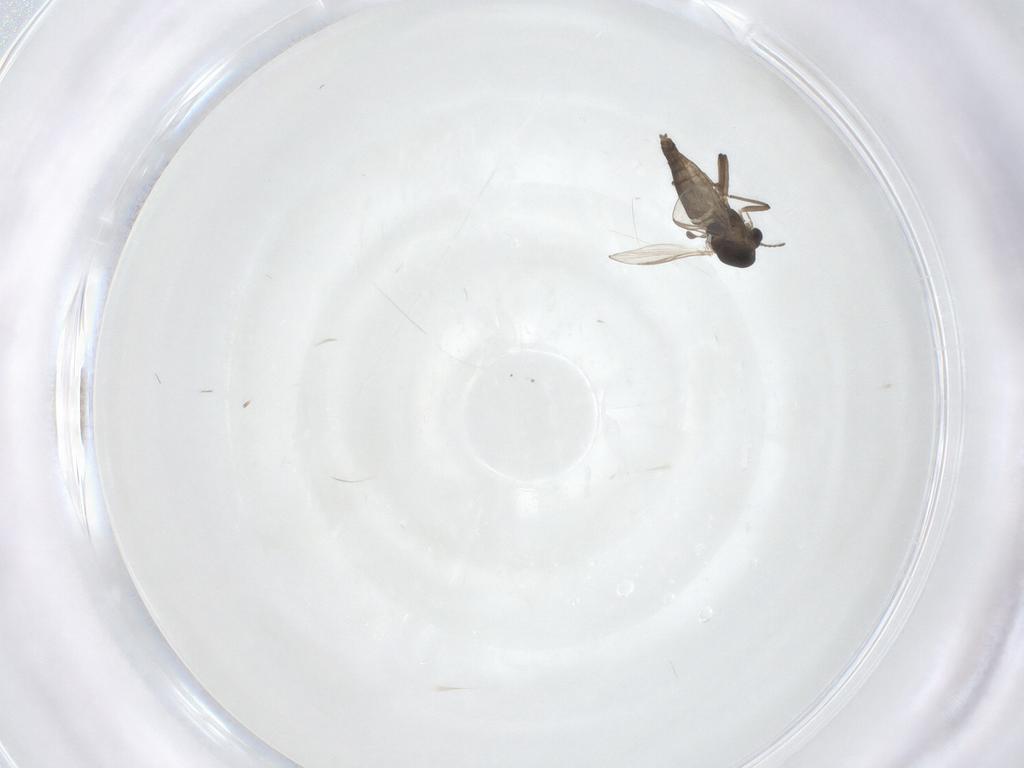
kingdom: Animalia
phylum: Arthropoda
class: Insecta
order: Diptera
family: Chironomidae
